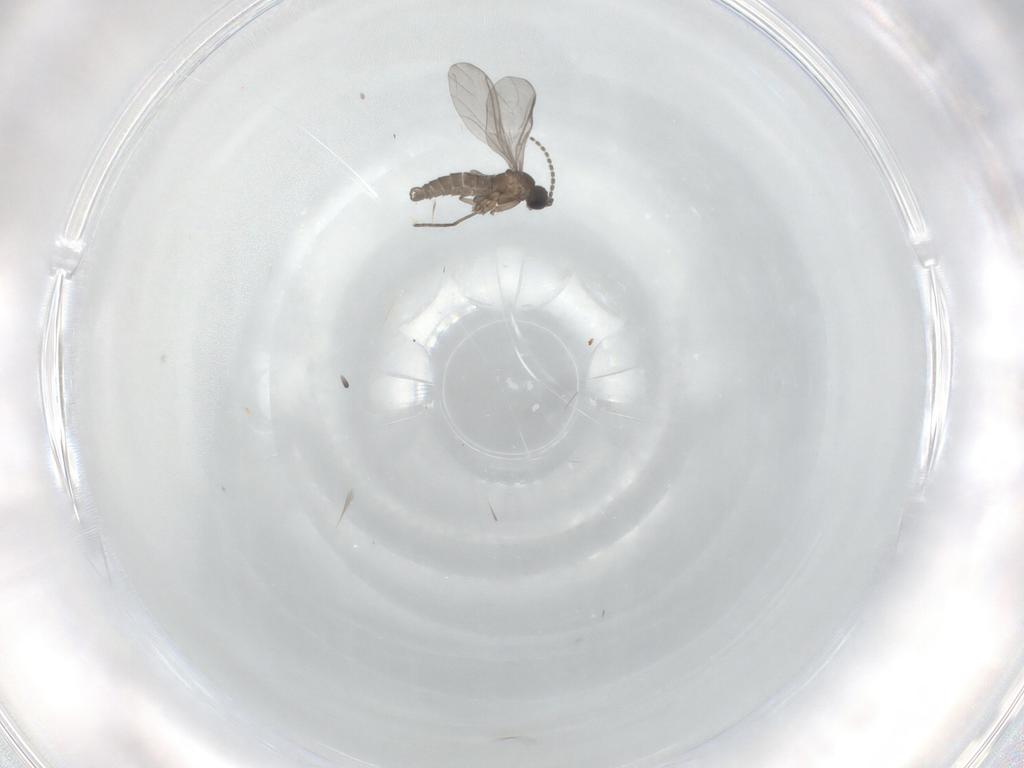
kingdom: Animalia
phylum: Arthropoda
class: Insecta
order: Diptera
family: Sciaridae
